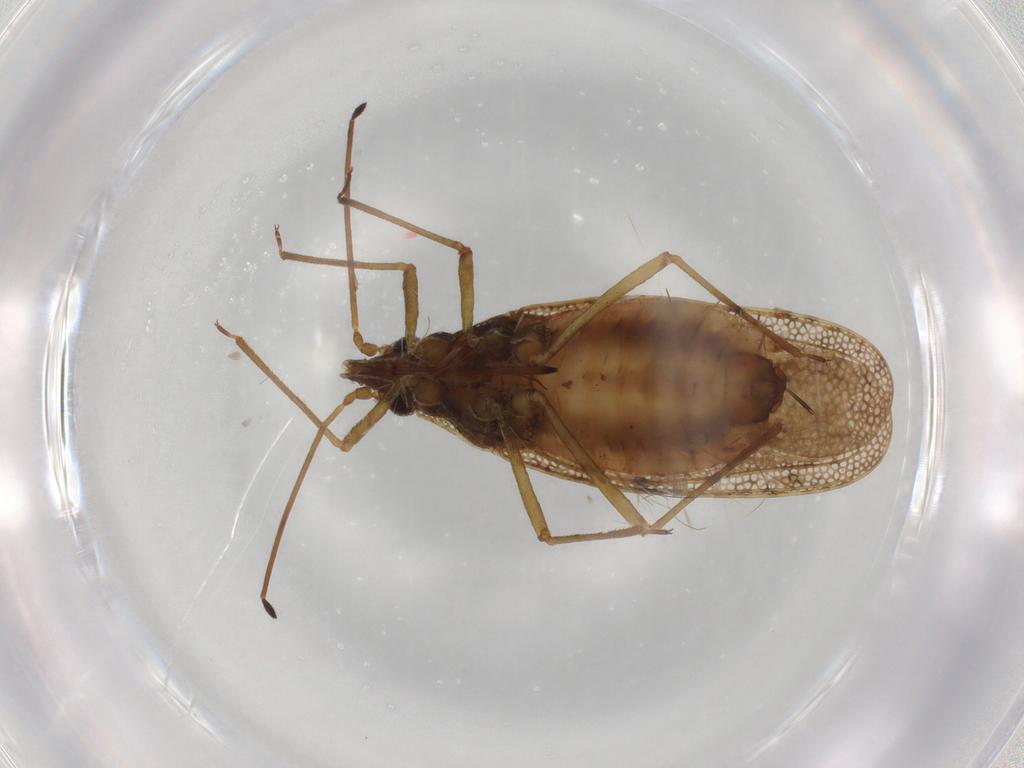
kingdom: Animalia
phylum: Arthropoda
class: Insecta
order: Hemiptera
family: Tingidae
